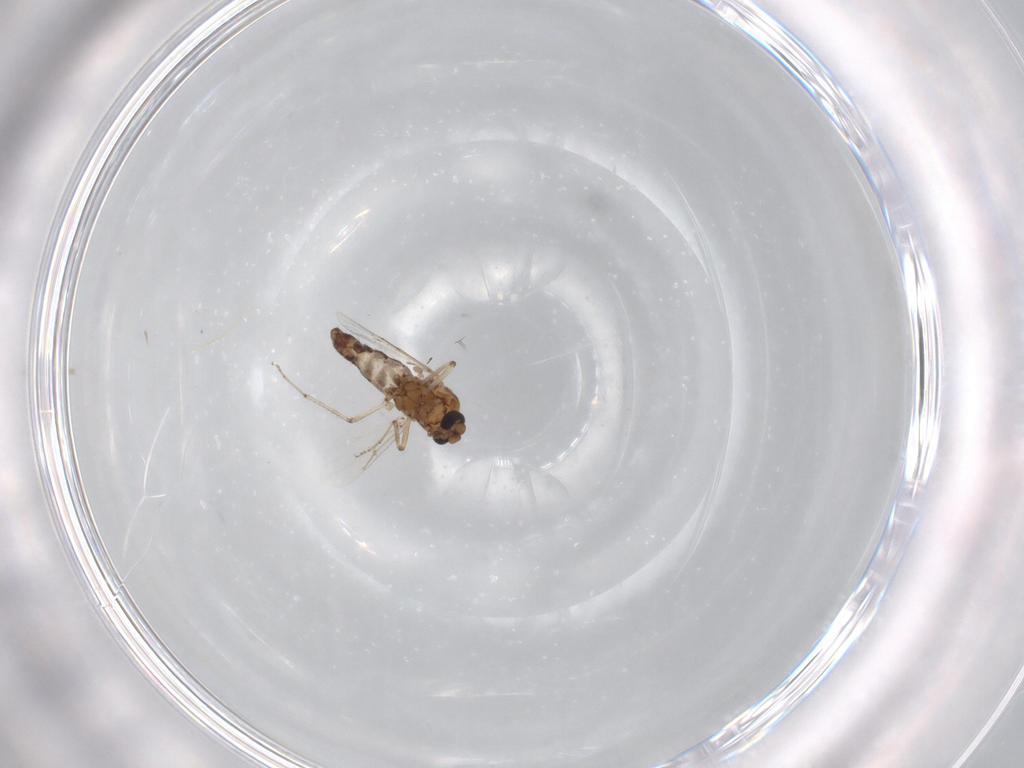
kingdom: Animalia
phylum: Arthropoda
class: Insecta
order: Diptera
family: Ceratopogonidae
